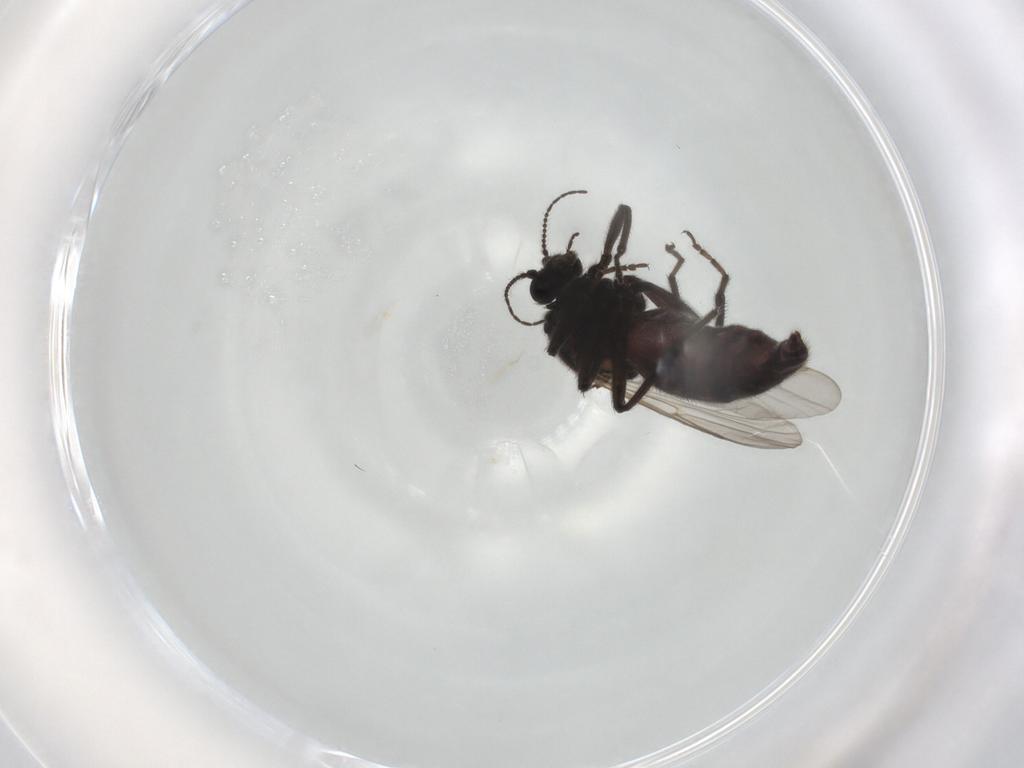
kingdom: Animalia
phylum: Arthropoda
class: Insecta
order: Diptera
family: Ceratopogonidae
